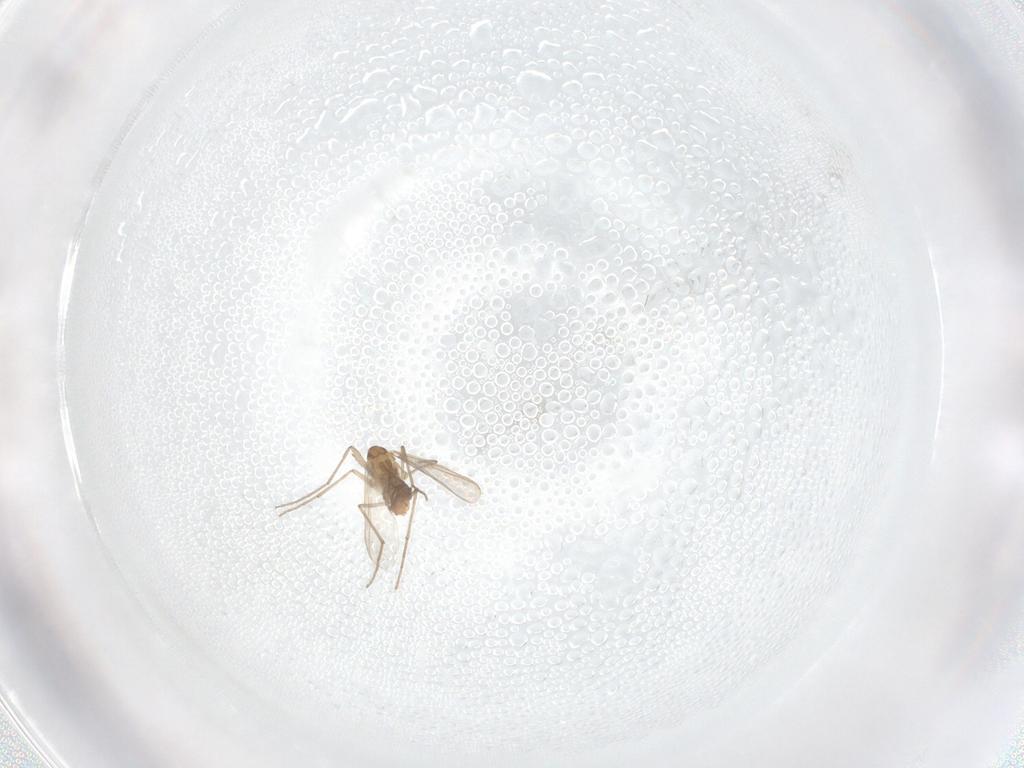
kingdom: Animalia
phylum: Arthropoda
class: Insecta
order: Diptera
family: Chironomidae
